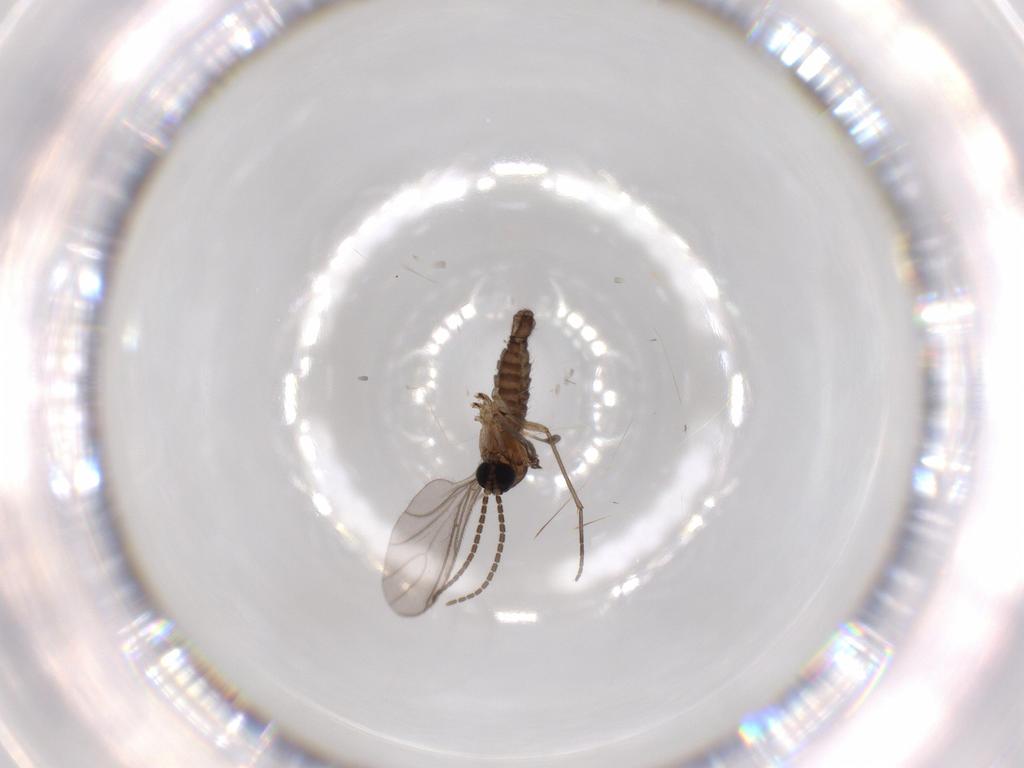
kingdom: Animalia
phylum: Arthropoda
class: Insecta
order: Diptera
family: Sciaridae
